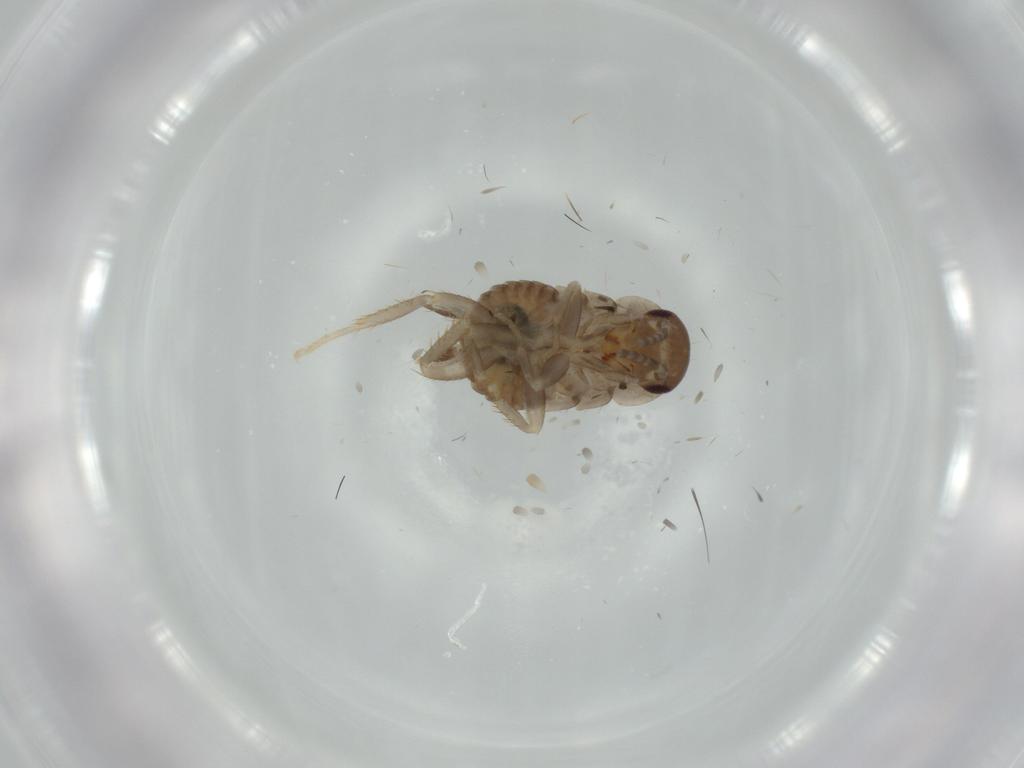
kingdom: Animalia
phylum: Arthropoda
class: Insecta
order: Blattodea
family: Ectobiidae
